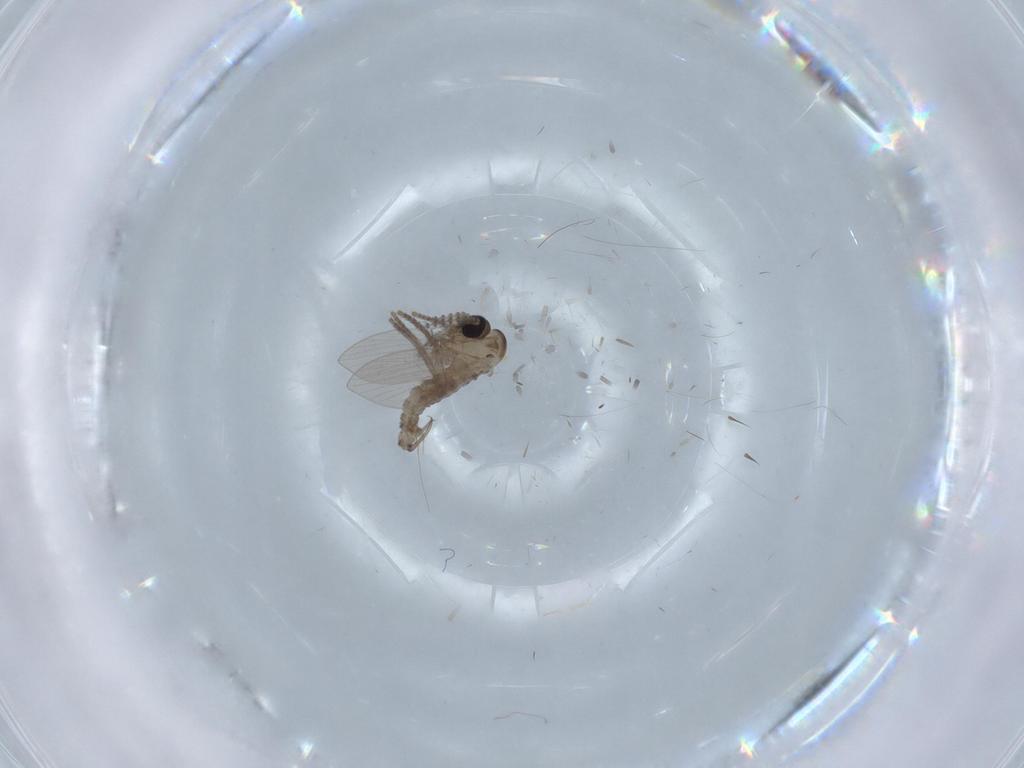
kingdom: Animalia
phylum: Arthropoda
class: Insecta
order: Diptera
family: Psychodidae
